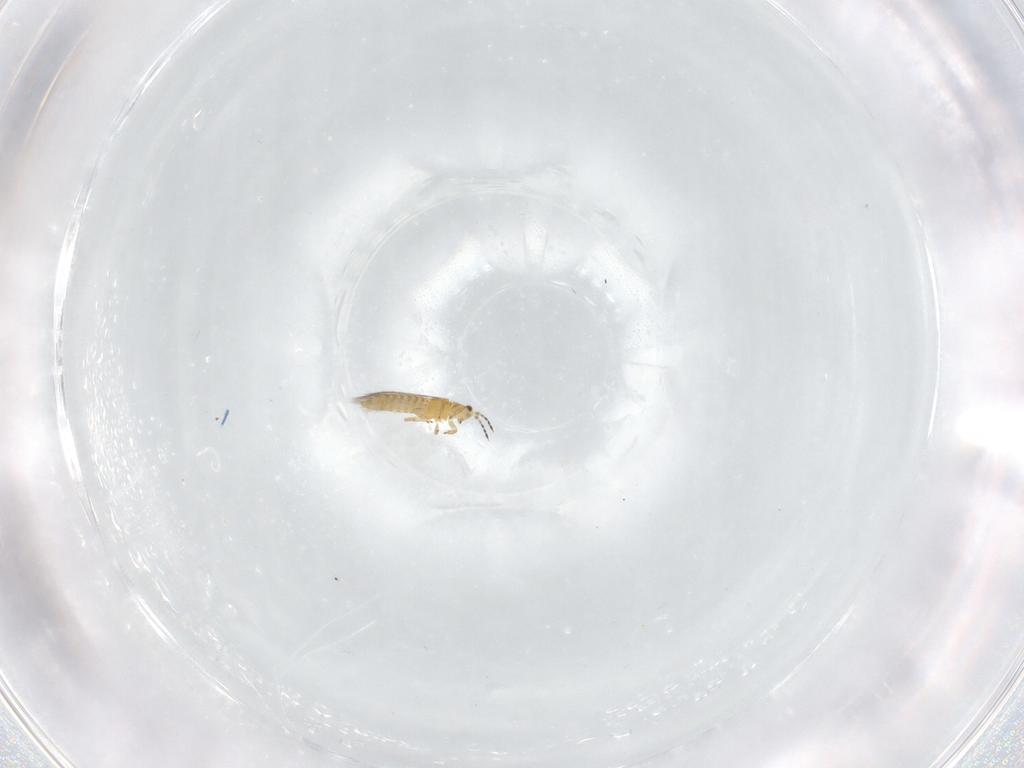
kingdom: Animalia
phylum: Arthropoda
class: Insecta
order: Thysanoptera
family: Thripidae
